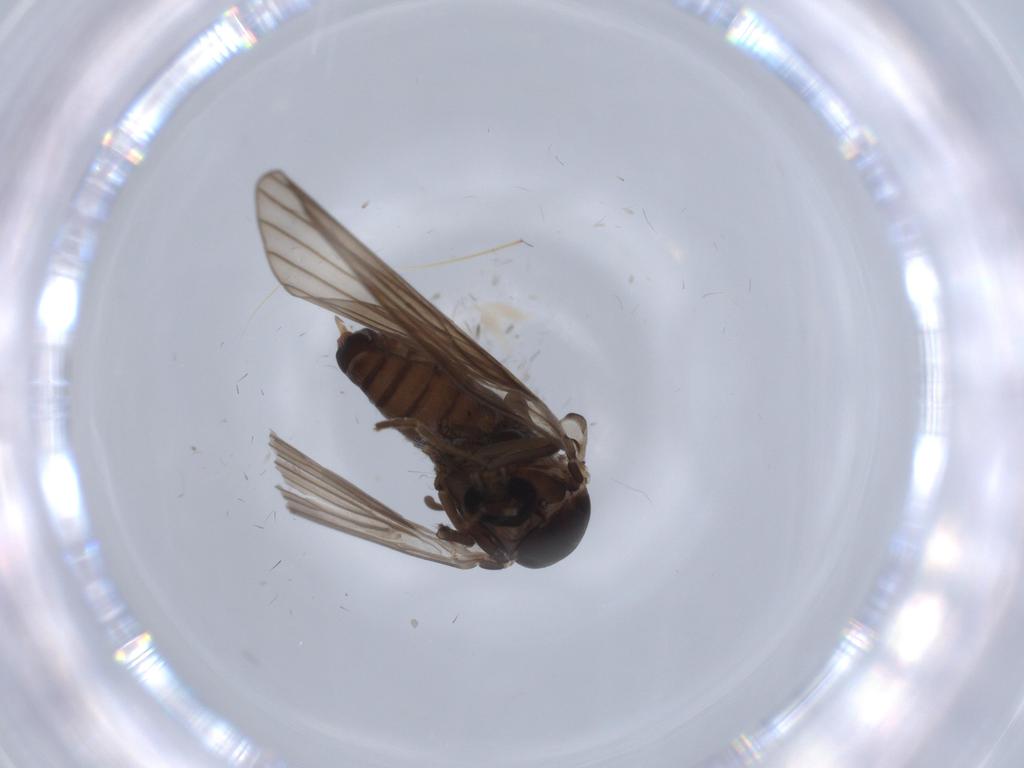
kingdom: Animalia
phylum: Arthropoda
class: Insecta
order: Diptera
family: Psychodidae
